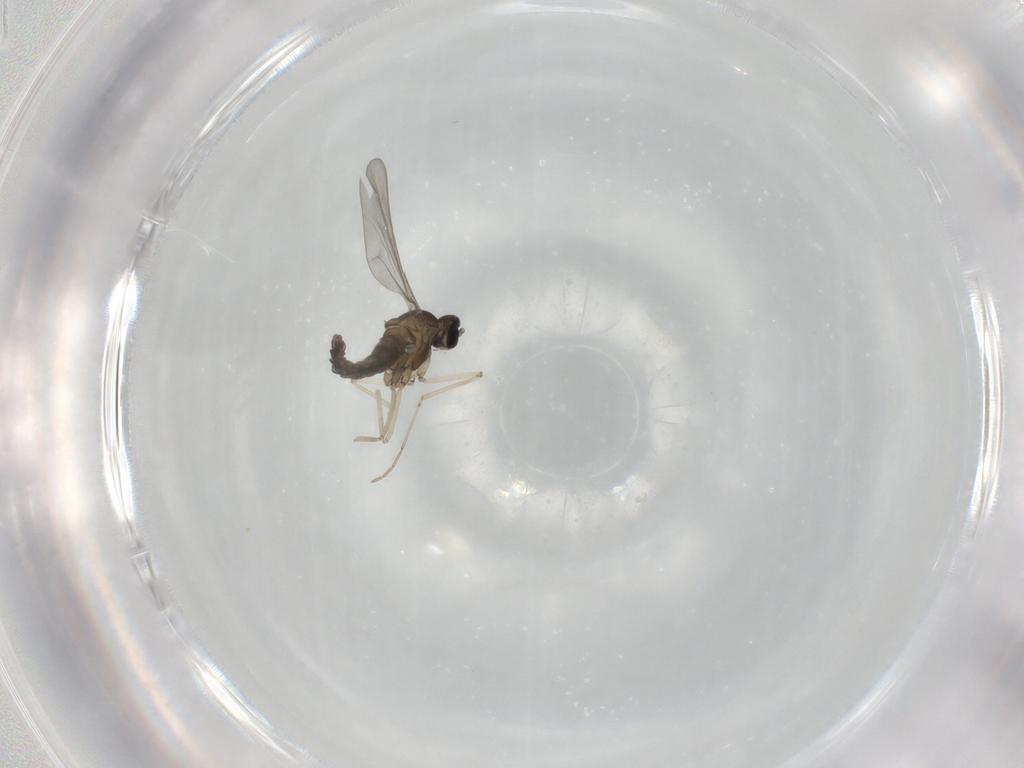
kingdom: Animalia
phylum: Arthropoda
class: Insecta
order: Diptera
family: Cecidomyiidae
